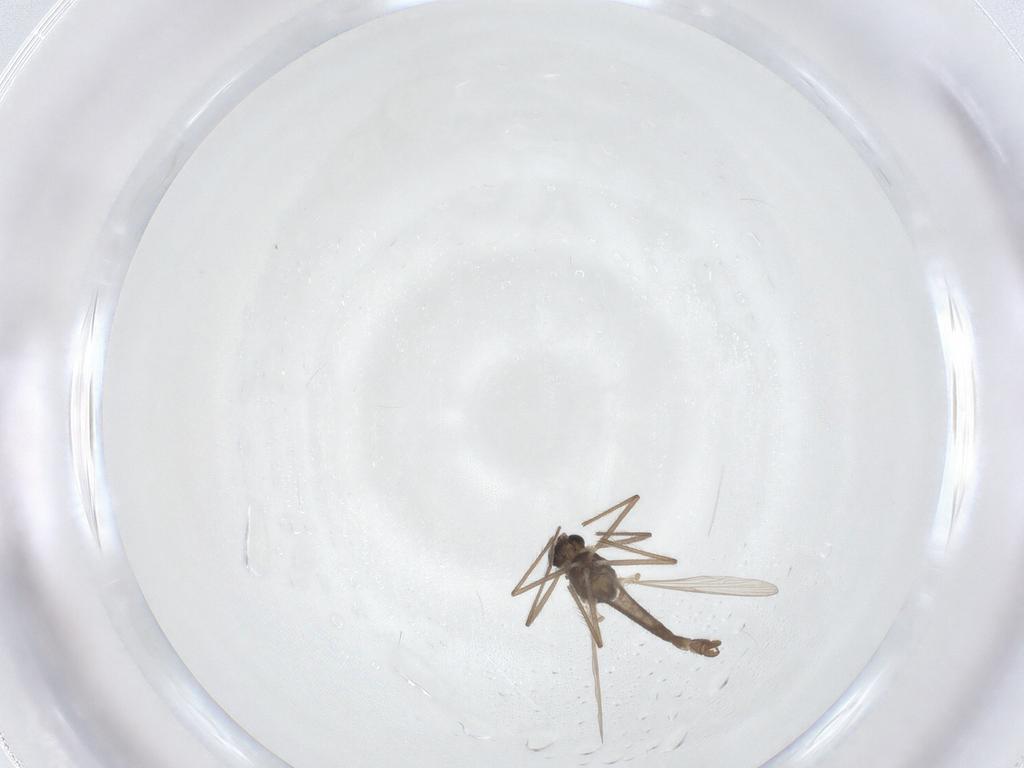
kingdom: Animalia
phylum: Arthropoda
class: Insecta
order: Diptera
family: Chironomidae
